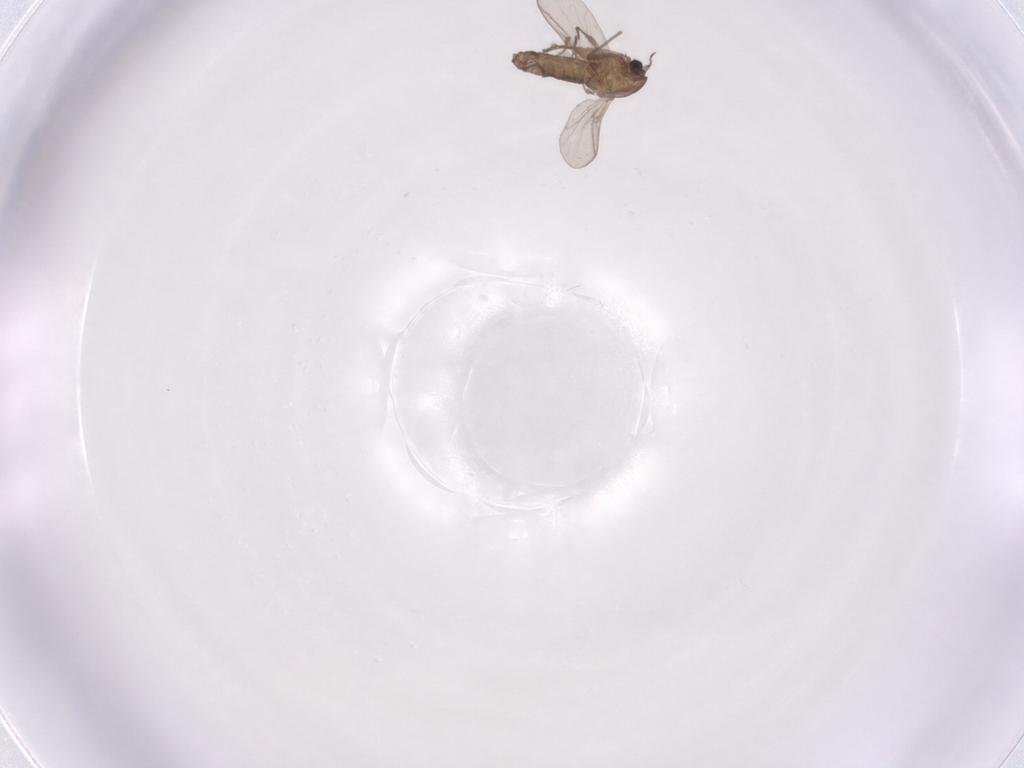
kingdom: Animalia
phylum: Arthropoda
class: Insecta
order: Diptera
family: Chironomidae
